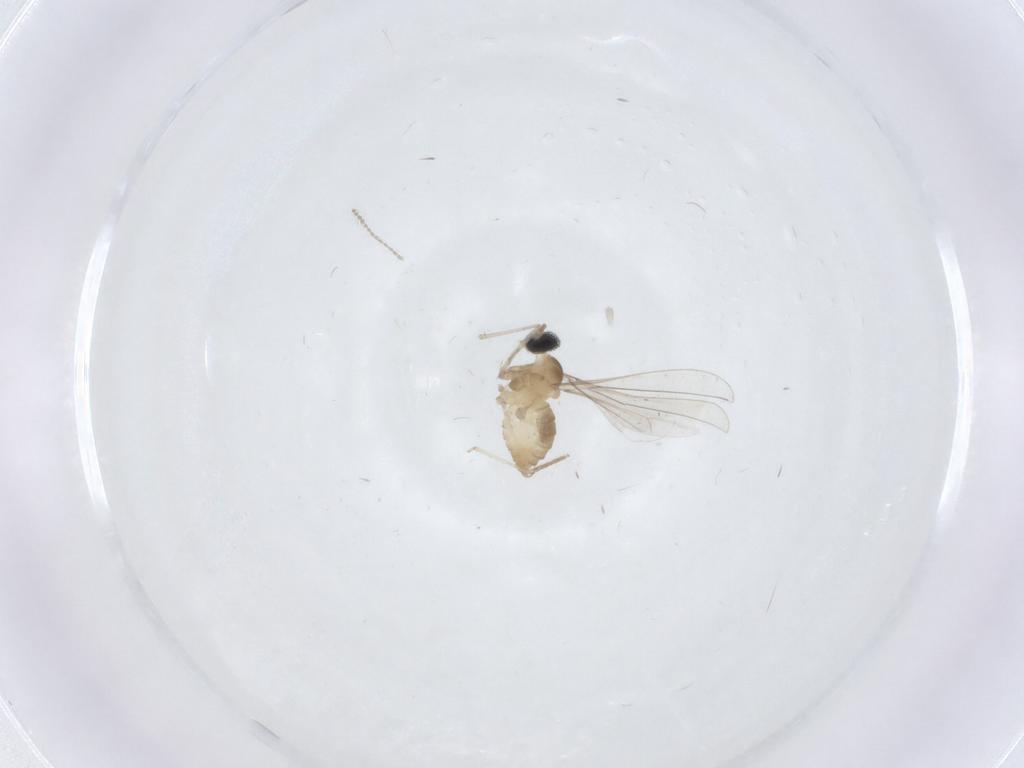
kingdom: Animalia
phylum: Arthropoda
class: Insecta
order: Diptera
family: Cecidomyiidae
